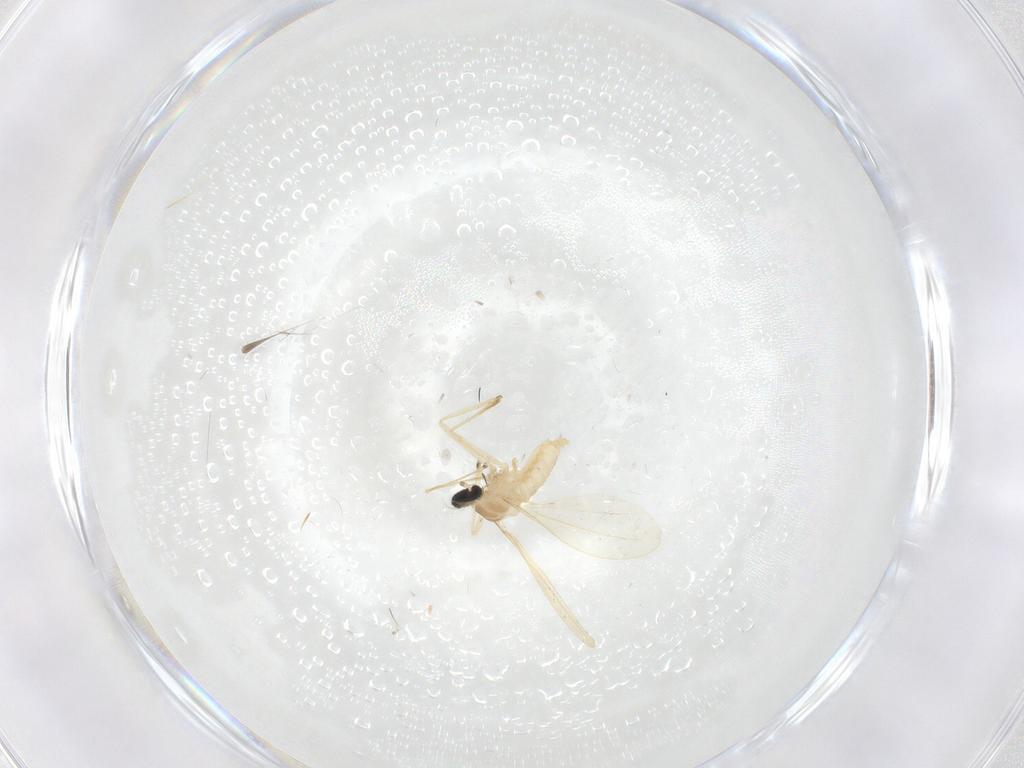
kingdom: Animalia
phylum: Arthropoda
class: Insecta
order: Diptera
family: Cecidomyiidae
